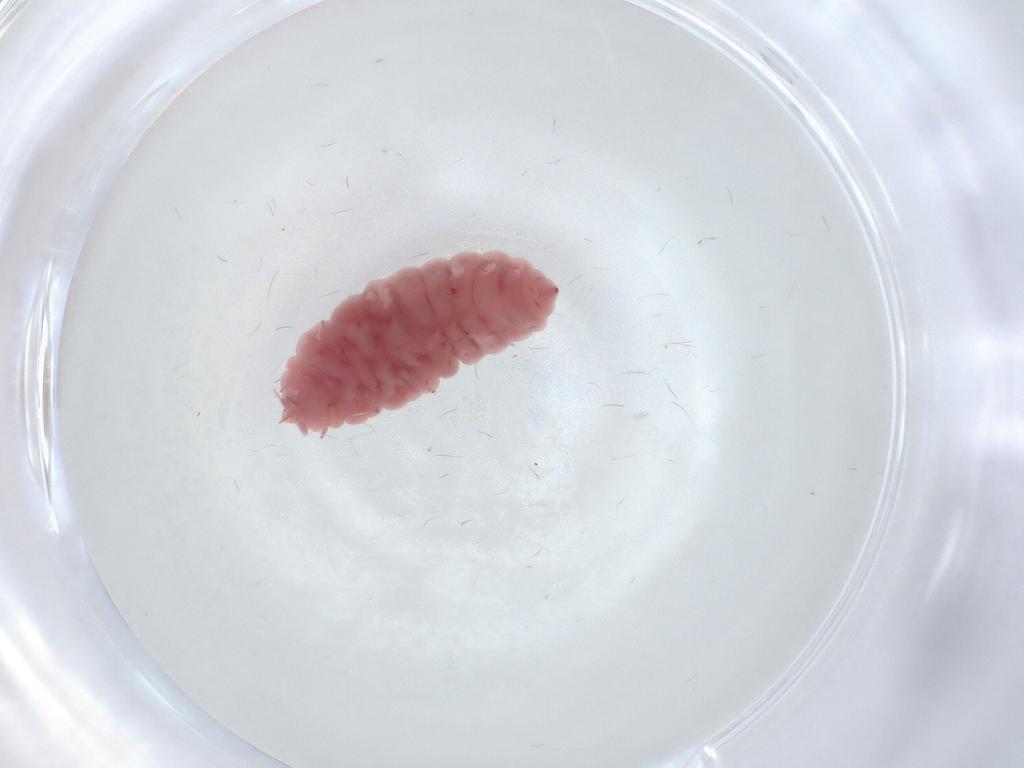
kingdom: Animalia
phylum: Arthropoda
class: Insecta
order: Neuroptera
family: Coniopterygidae
